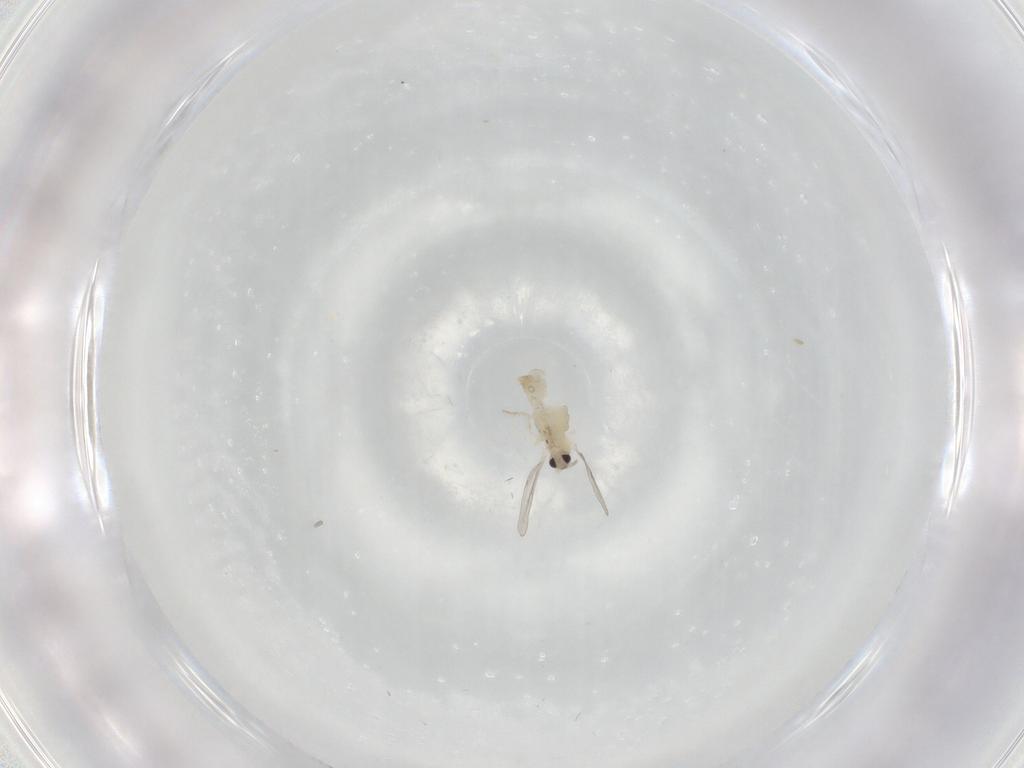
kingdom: Animalia
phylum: Arthropoda
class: Insecta
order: Diptera
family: Cecidomyiidae
